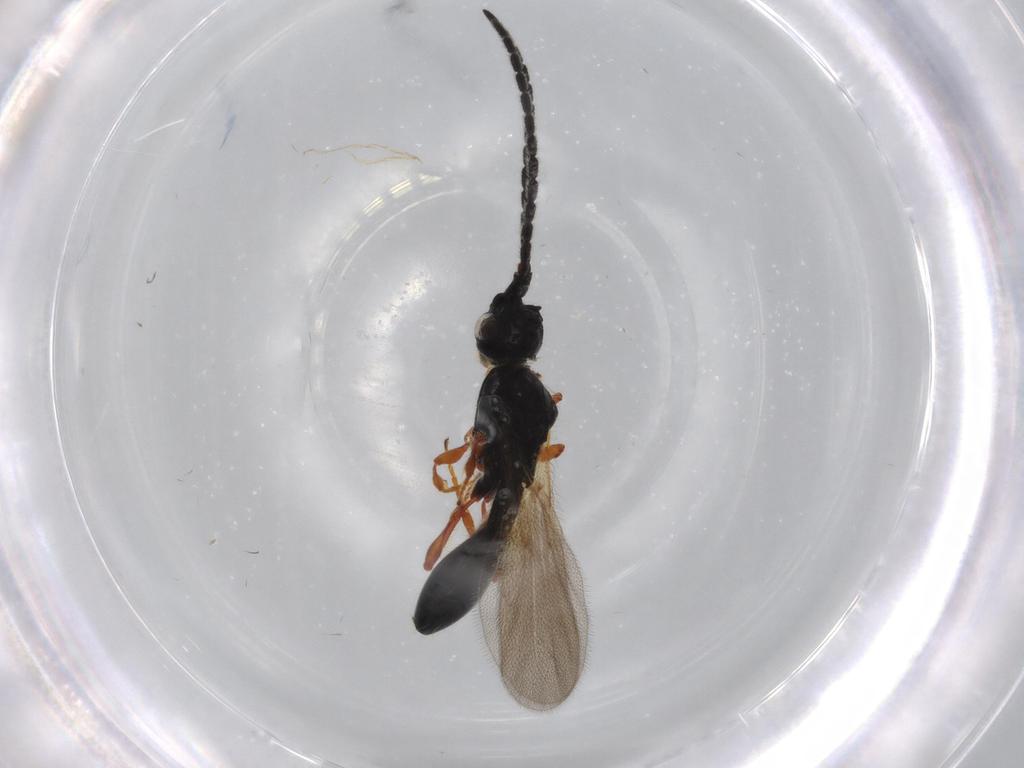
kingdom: Animalia
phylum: Arthropoda
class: Insecta
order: Hymenoptera
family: Diapriidae
